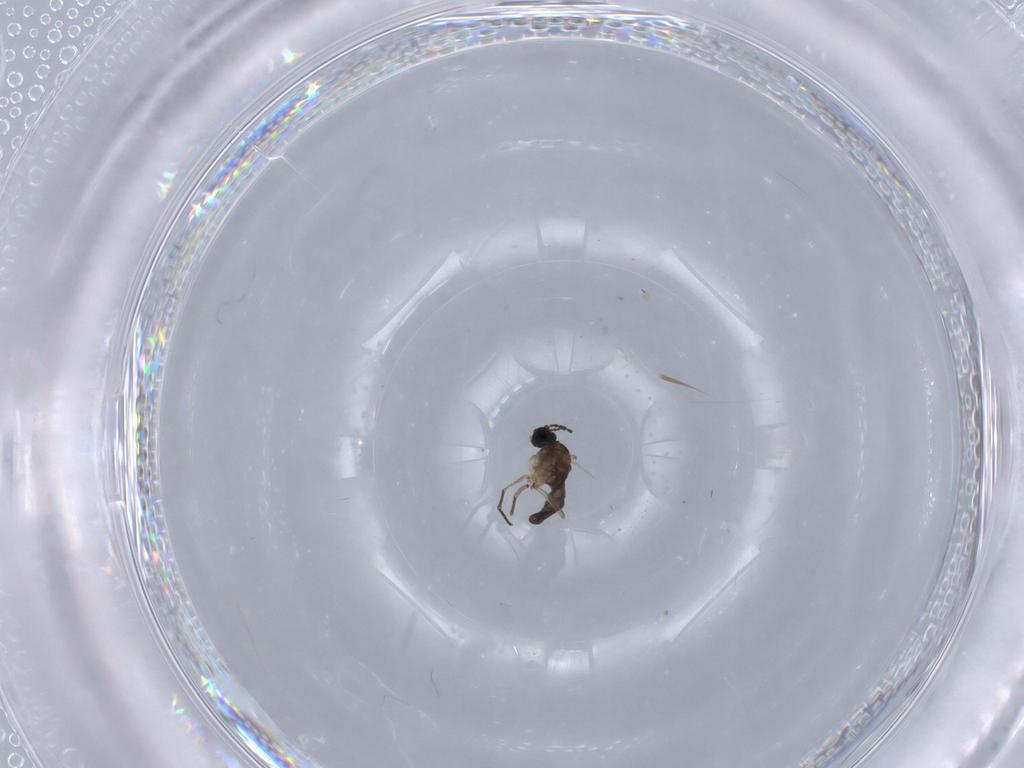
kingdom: Animalia
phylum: Arthropoda
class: Insecta
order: Diptera
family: Sciaridae
